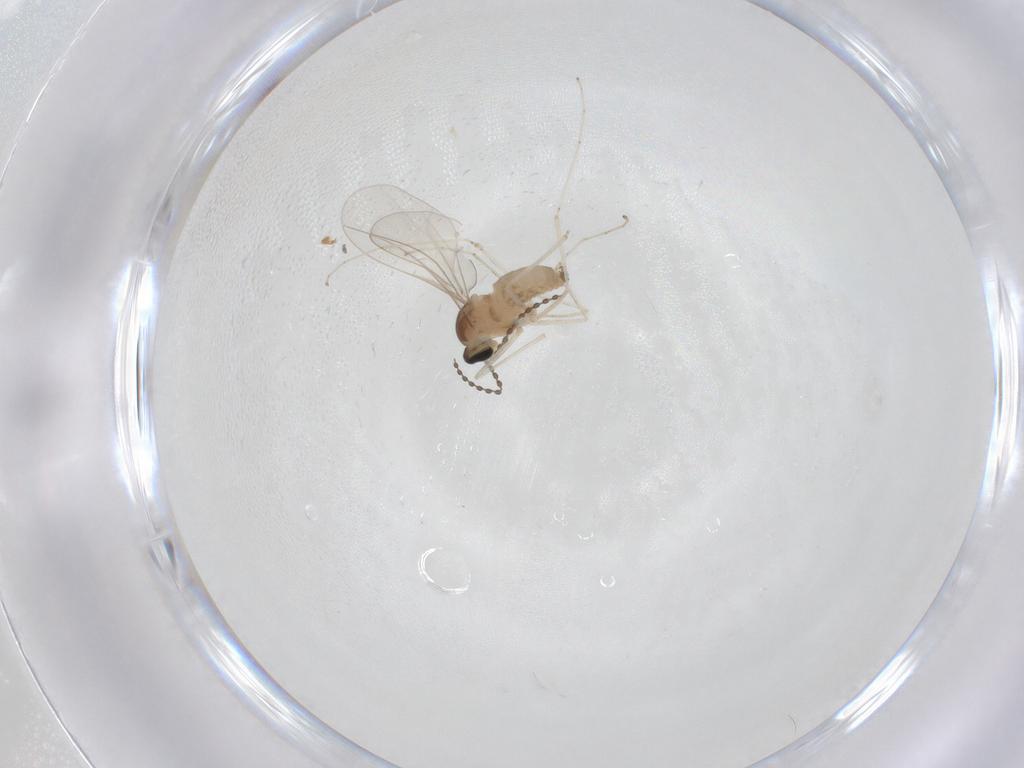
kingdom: Animalia
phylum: Arthropoda
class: Insecta
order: Diptera
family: Cecidomyiidae
